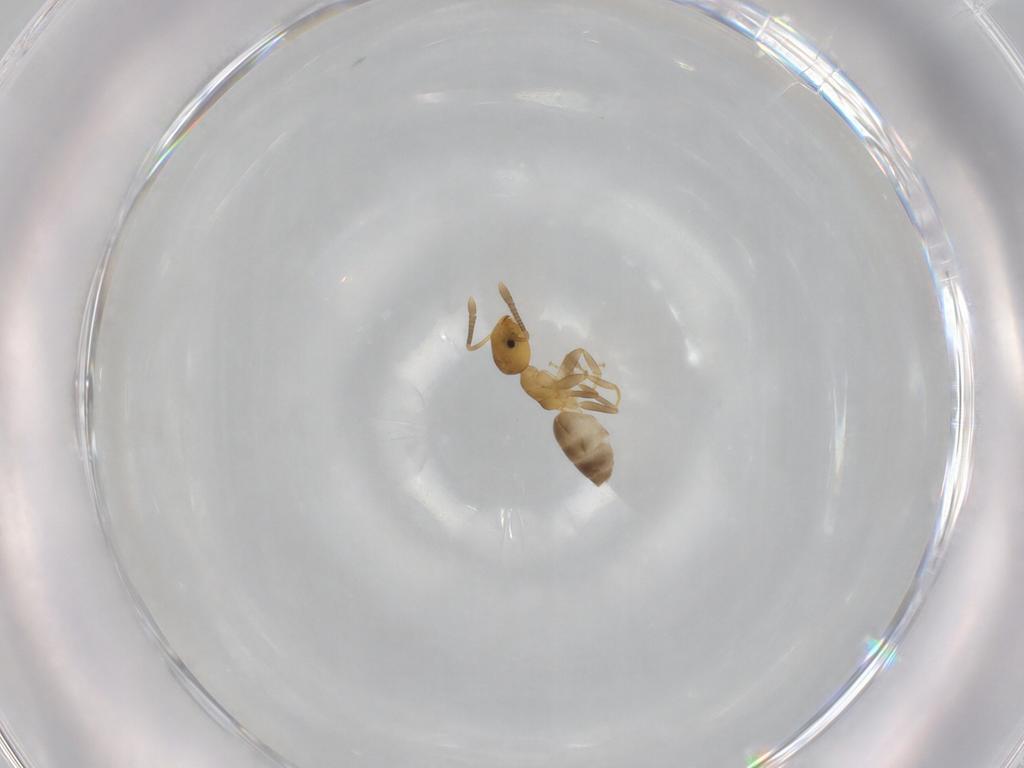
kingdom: Animalia
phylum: Arthropoda
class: Insecta
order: Hymenoptera
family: Formicidae
